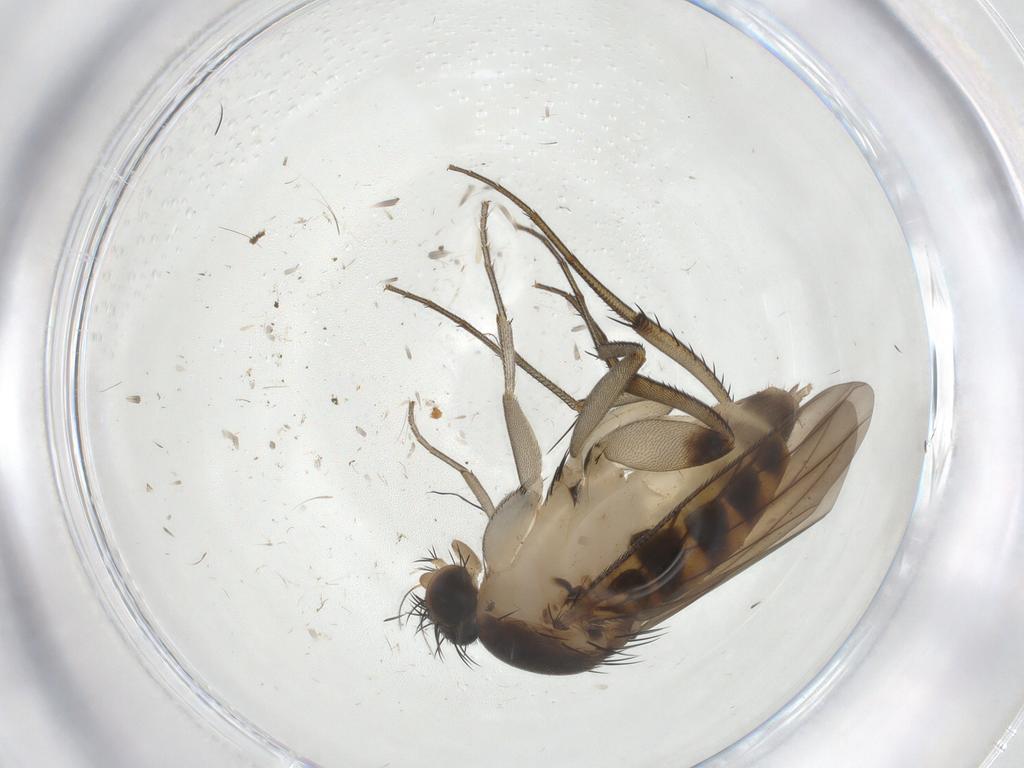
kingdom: Animalia
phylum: Arthropoda
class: Insecta
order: Diptera
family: Phoridae
